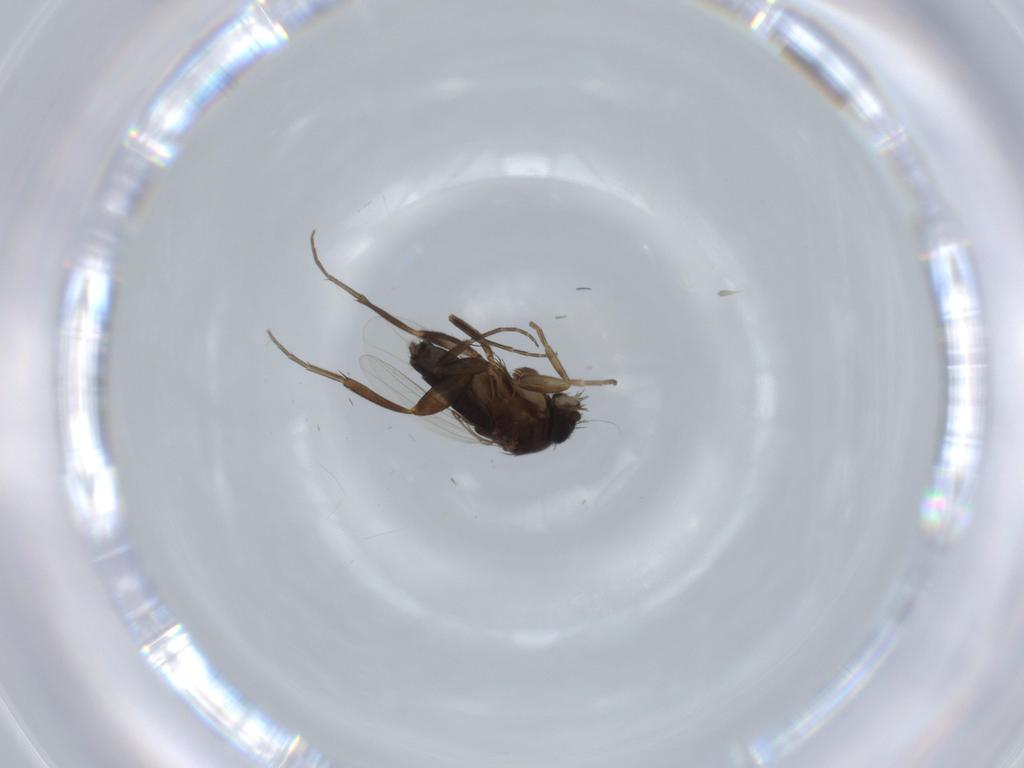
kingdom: Animalia
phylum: Arthropoda
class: Insecta
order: Diptera
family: Phoridae
